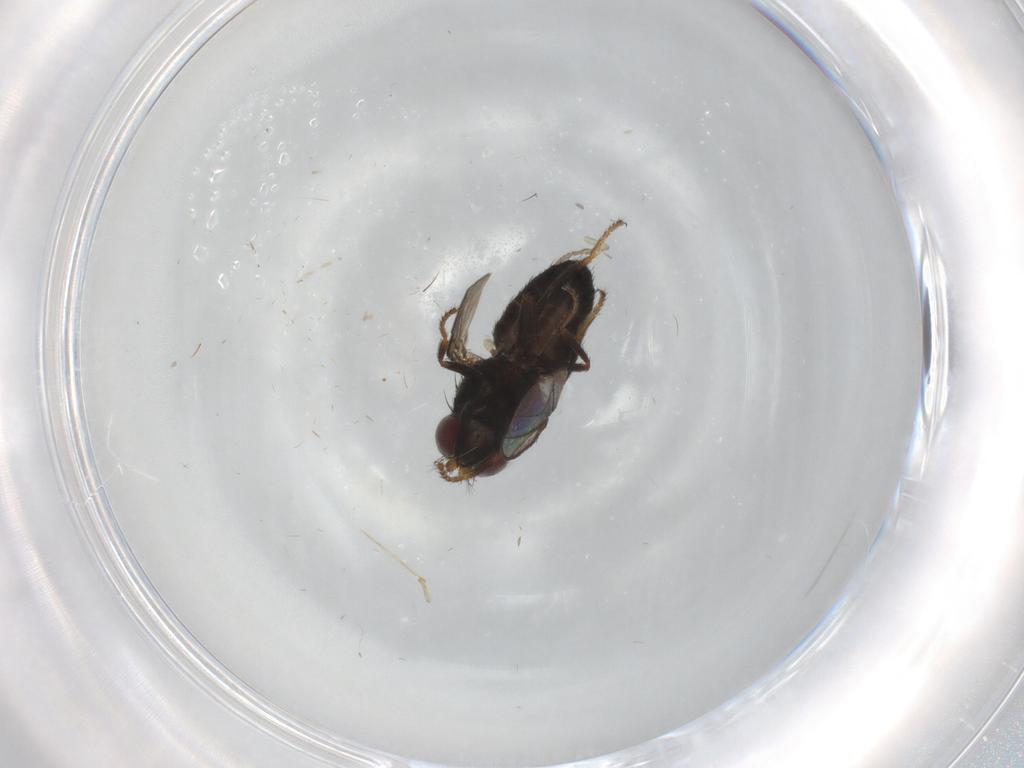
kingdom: Animalia
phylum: Arthropoda
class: Insecta
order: Diptera
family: Psychodidae
